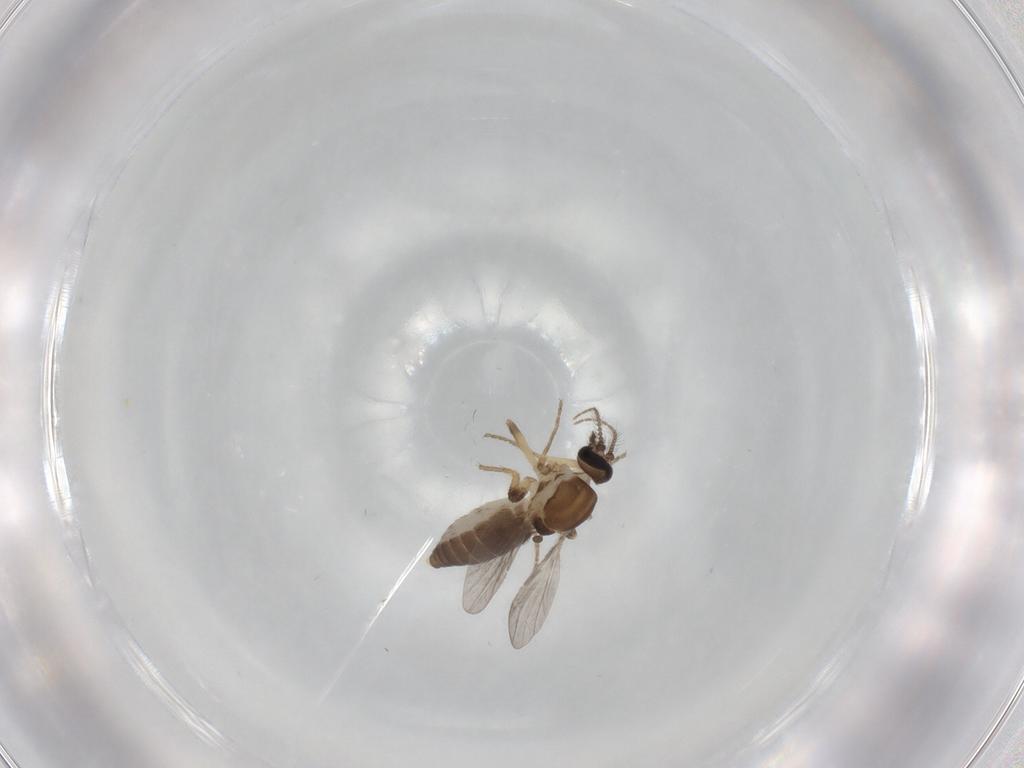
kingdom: Animalia
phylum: Arthropoda
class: Insecta
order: Diptera
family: Ceratopogonidae
